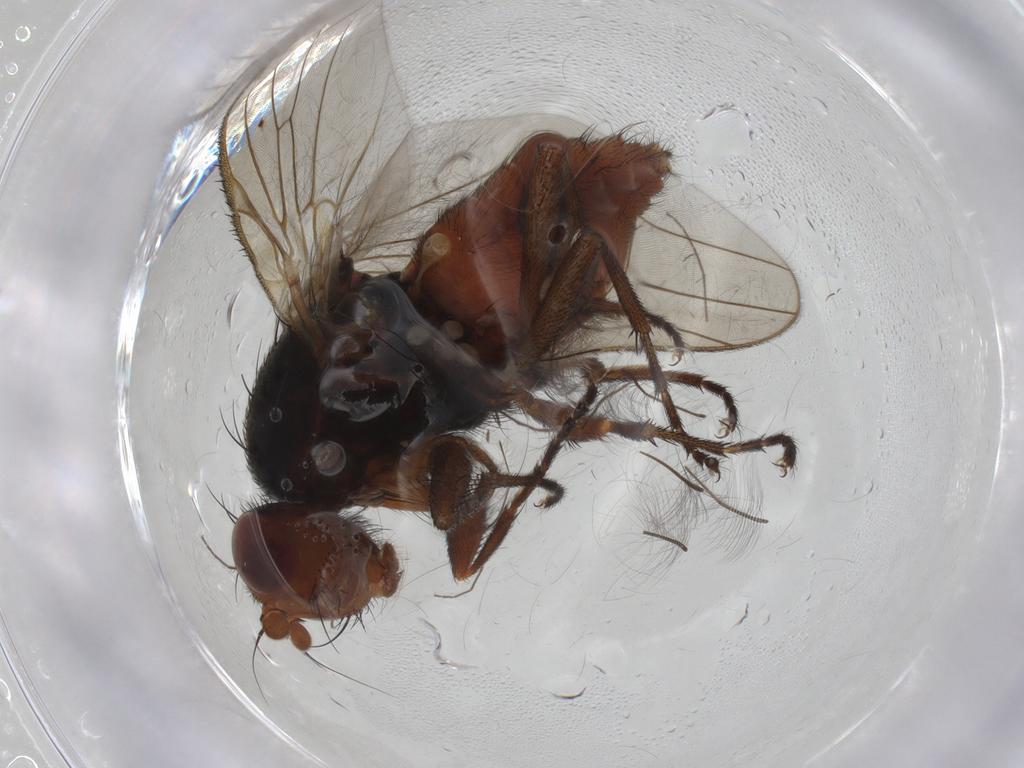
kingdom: Animalia
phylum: Arthropoda
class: Insecta
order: Diptera
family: Heleomyzidae
